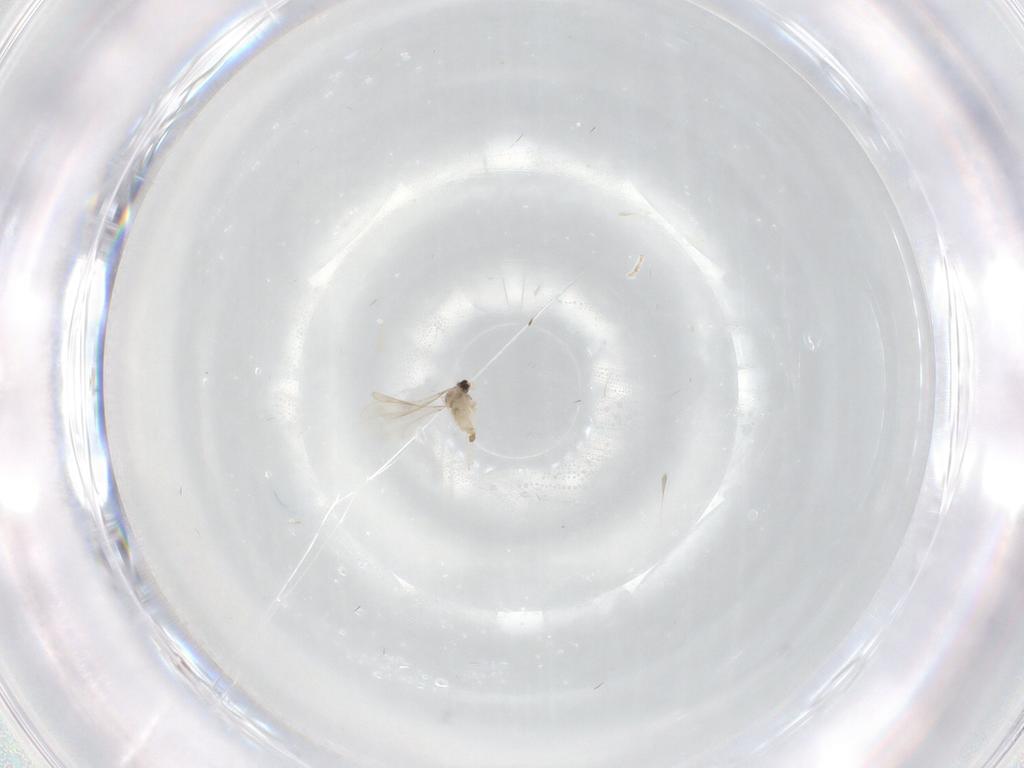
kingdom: Animalia
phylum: Arthropoda
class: Insecta
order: Diptera
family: Cecidomyiidae
